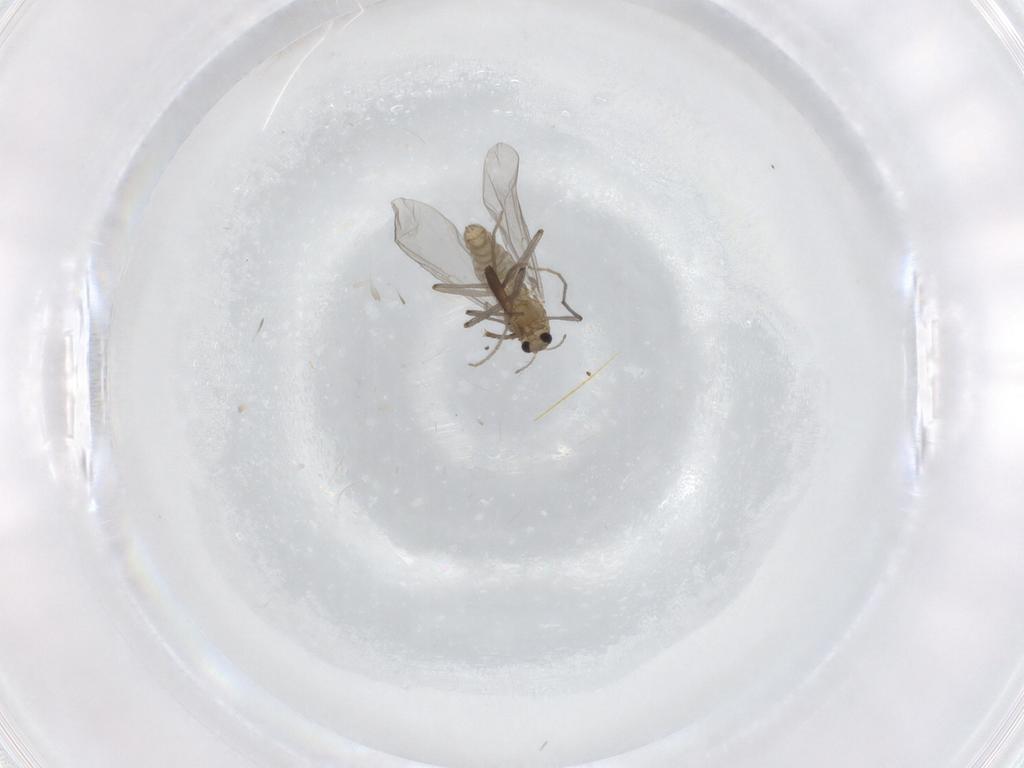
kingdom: Animalia
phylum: Arthropoda
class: Insecta
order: Diptera
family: Chironomidae
